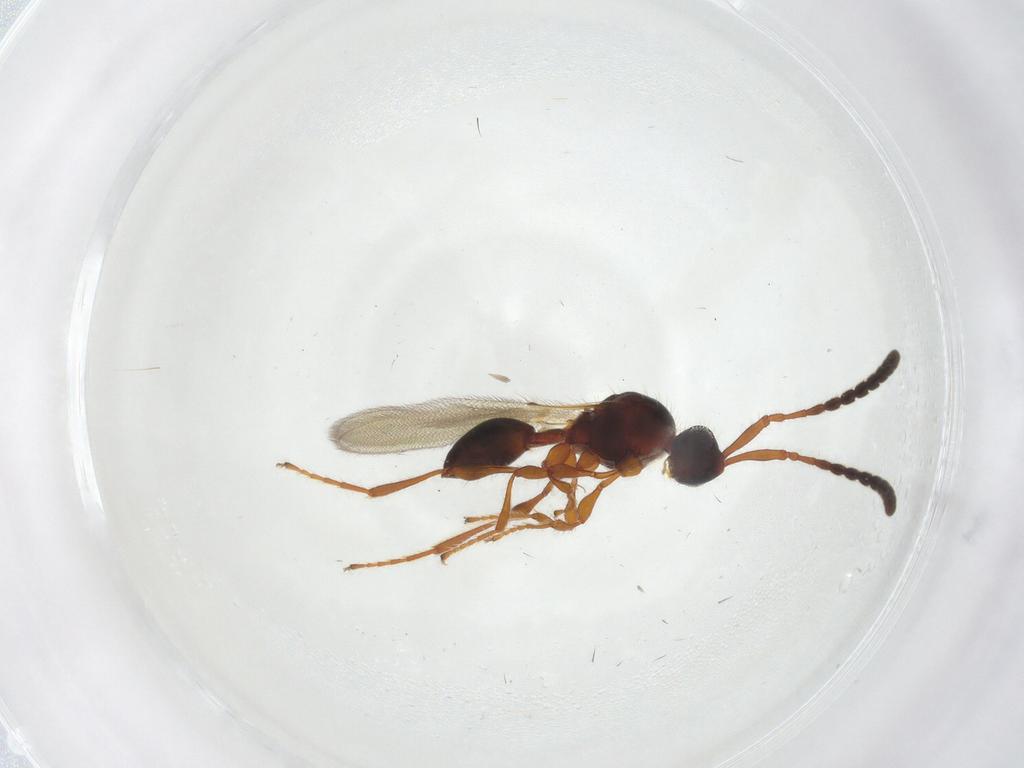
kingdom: Animalia
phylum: Arthropoda
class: Insecta
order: Hymenoptera
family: Diapriidae
